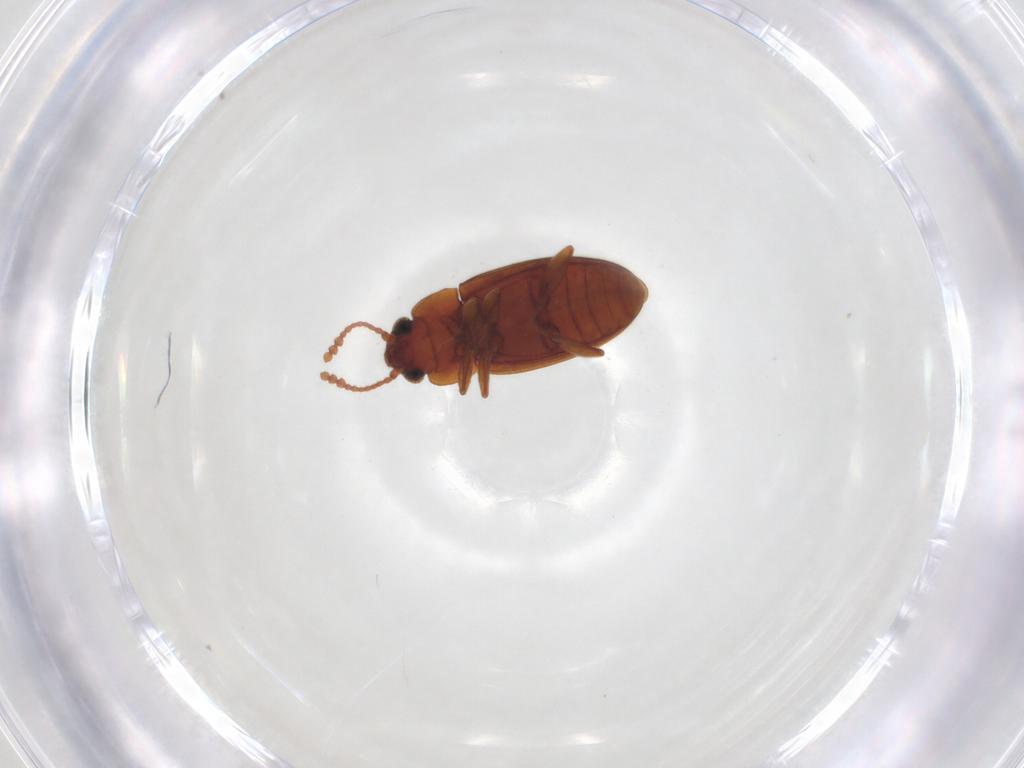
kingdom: Animalia
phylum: Arthropoda
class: Insecta
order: Coleoptera
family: Erotylidae
